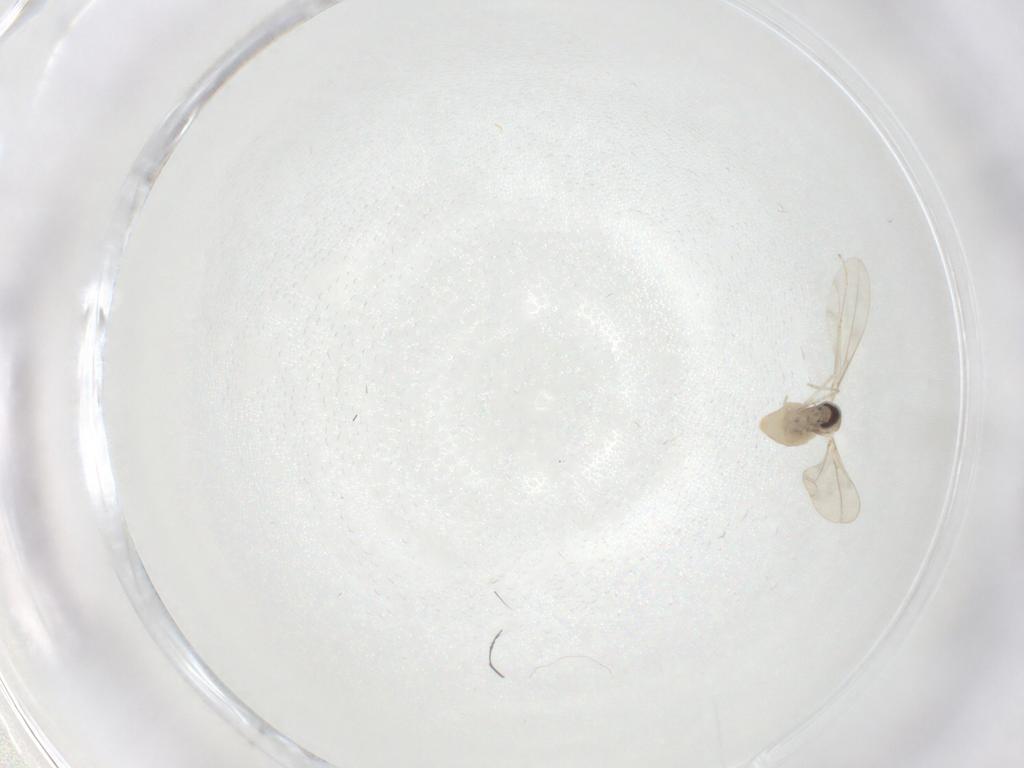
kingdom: Animalia
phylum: Arthropoda
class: Insecta
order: Diptera
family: Chironomidae
